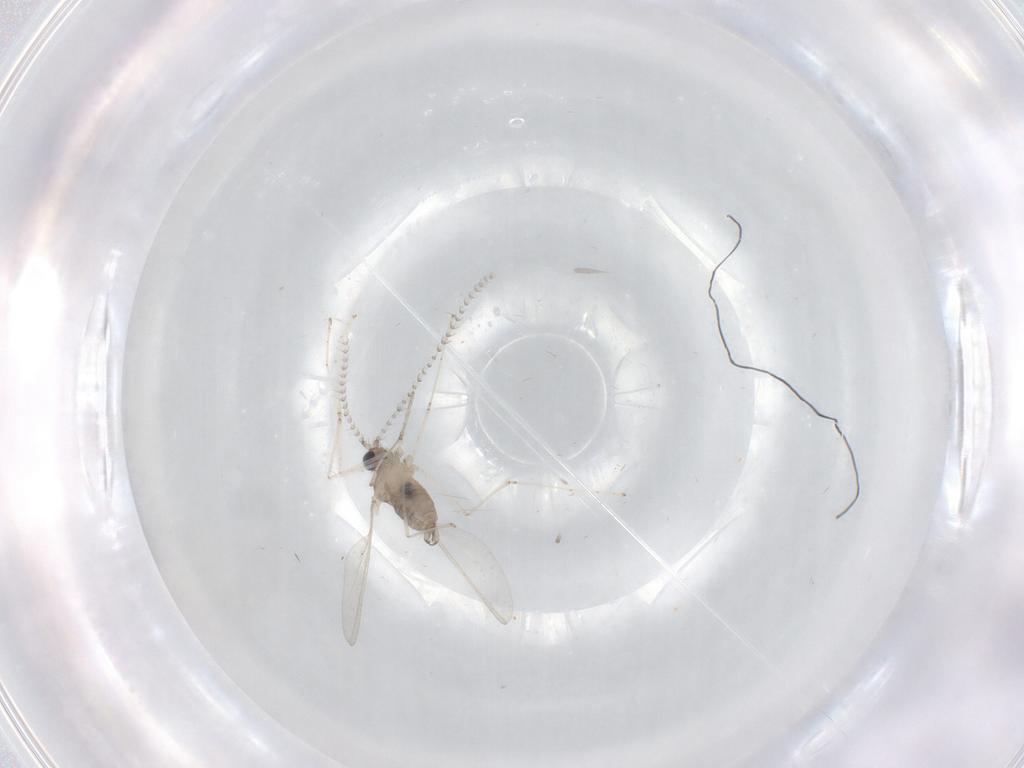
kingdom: Animalia
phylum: Arthropoda
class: Insecta
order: Diptera
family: Cecidomyiidae
